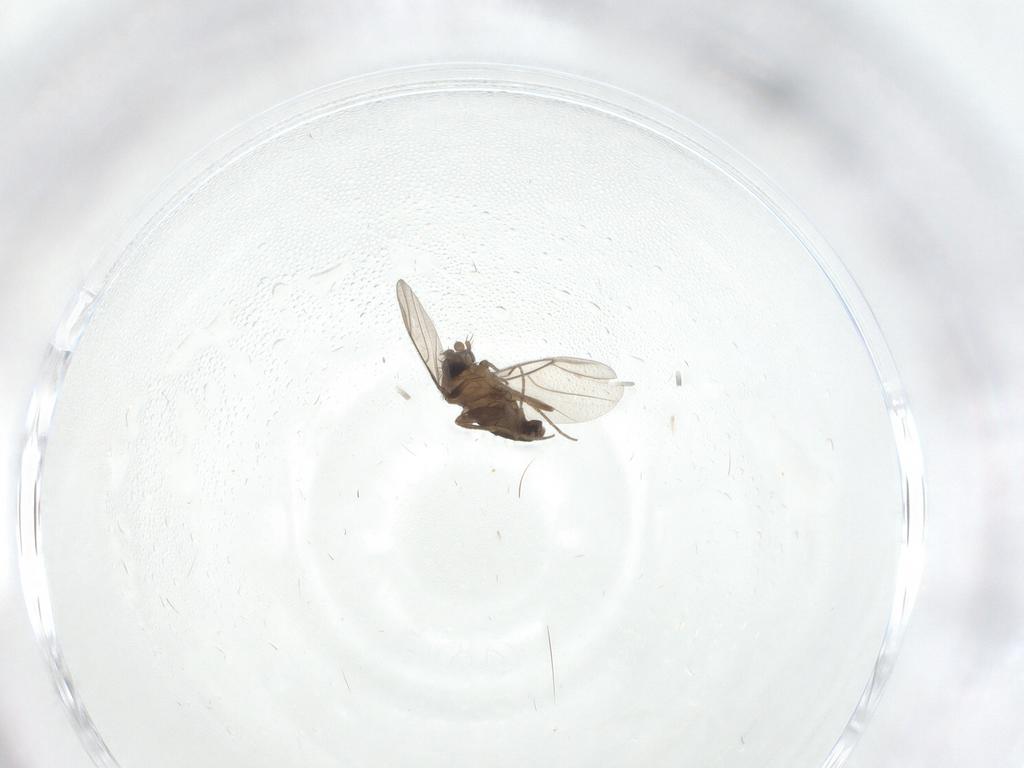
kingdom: Animalia
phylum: Arthropoda
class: Insecta
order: Diptera
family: Phoridae
